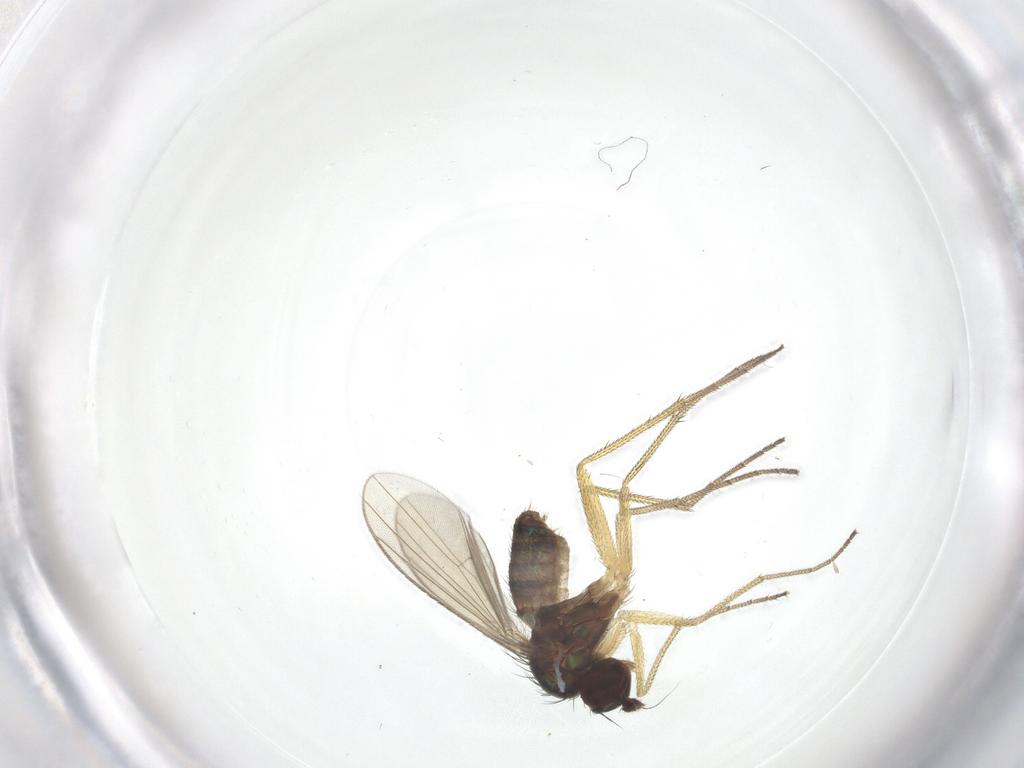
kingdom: Animalia
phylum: Arthropoda
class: Insecta
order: Diptera
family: Dolichopodidae
